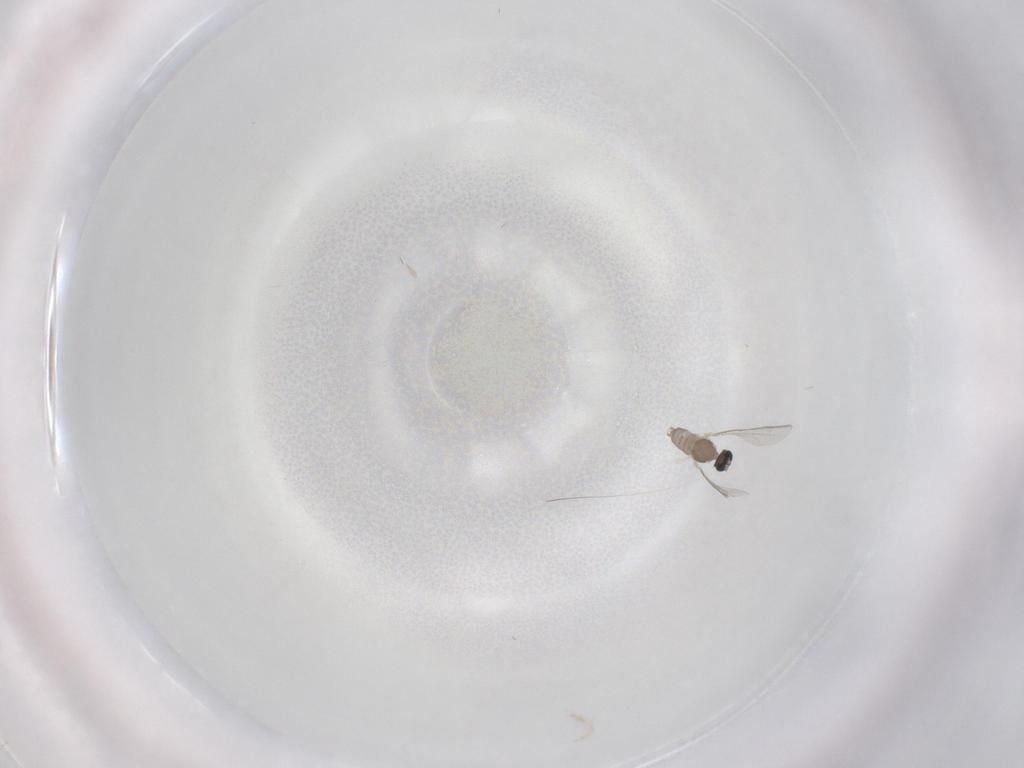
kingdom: Animalia
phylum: Arthropoda
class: Insecta
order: Diptera
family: Cecidomyiidae
